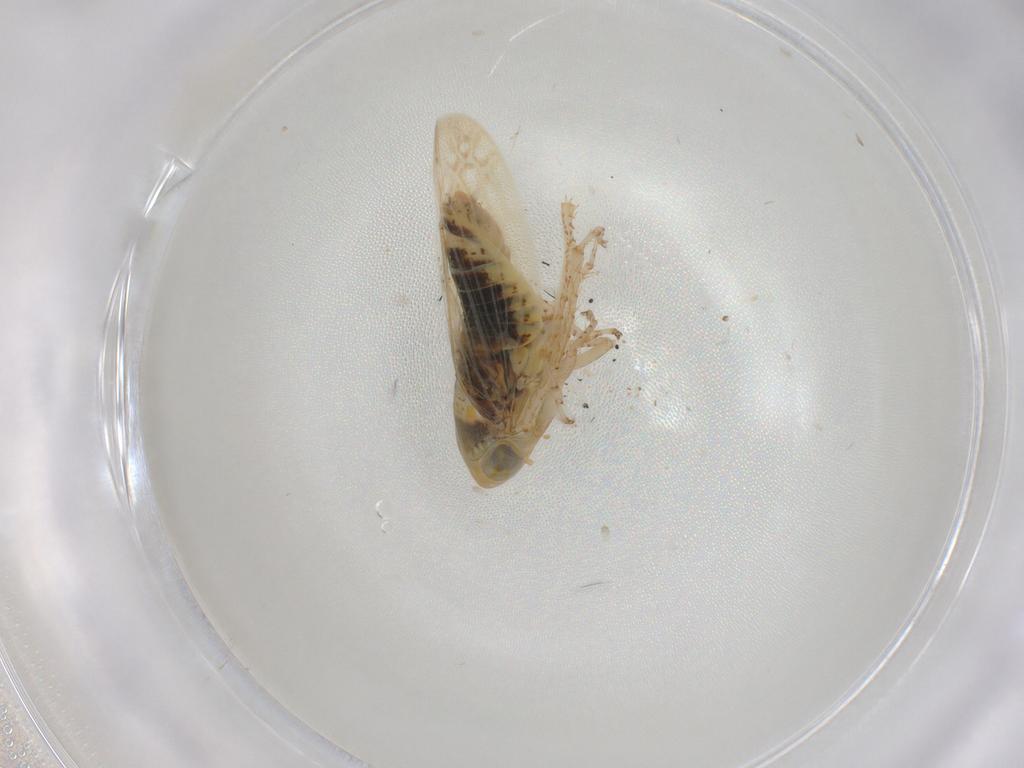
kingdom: Animalia
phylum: Arthropoda
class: Insecta
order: Hemiptera
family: Cicadellidae
